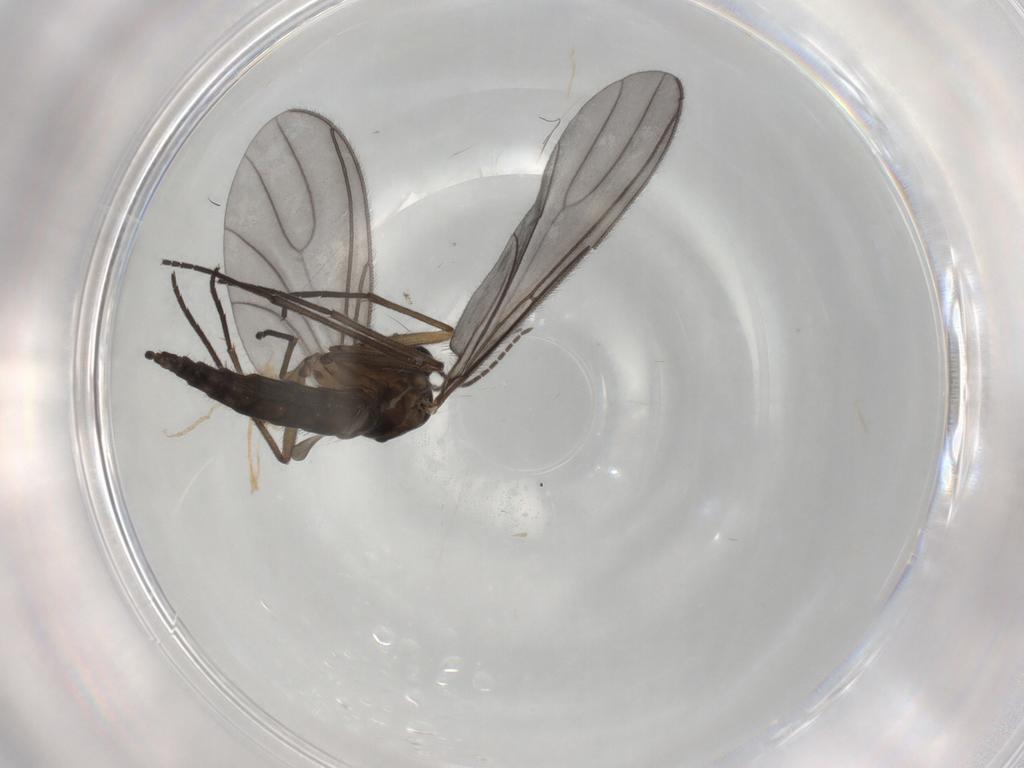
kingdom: Animalia
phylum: Arthropoda
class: Insecta
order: Diptera
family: Sciaridae
